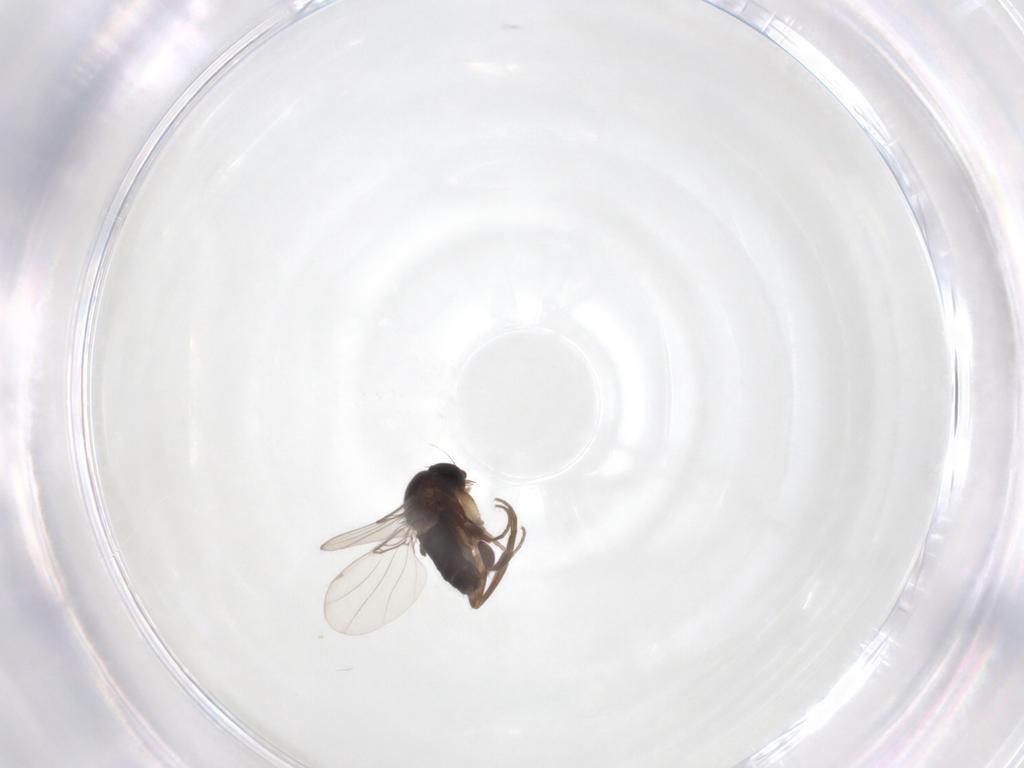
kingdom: Animalia
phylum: Arthropoda
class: Insecta
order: Diptera
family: Phoridae
